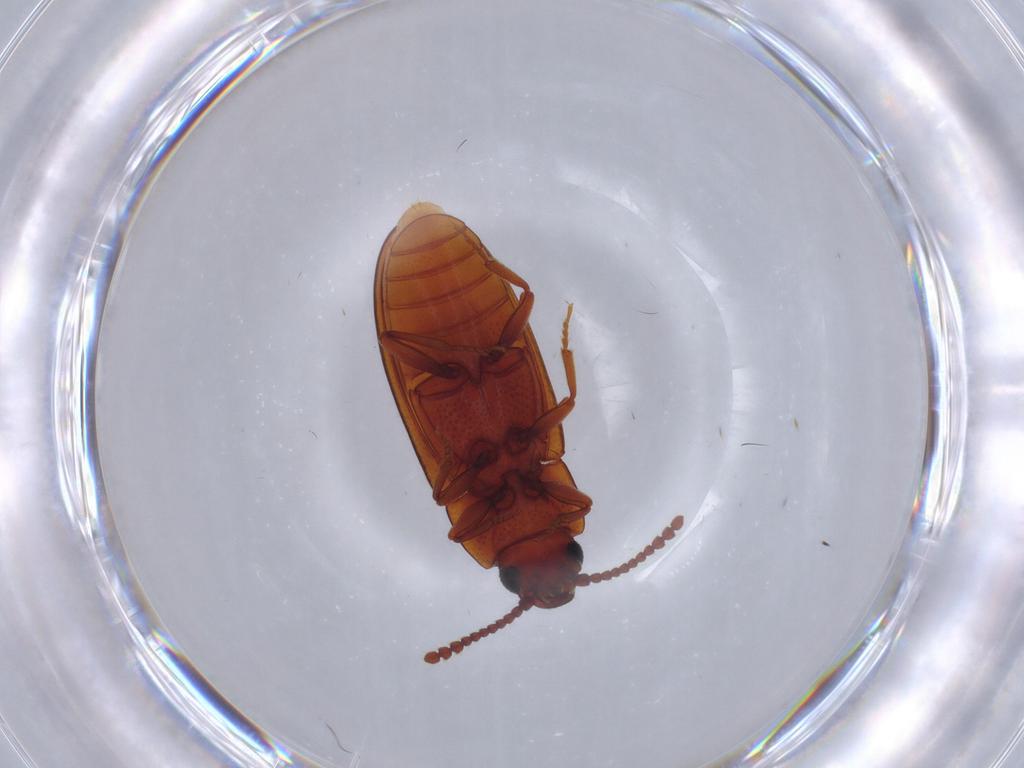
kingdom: Animalia
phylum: Arthropoda
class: Insecta
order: Coleoptera
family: Erotylidae
